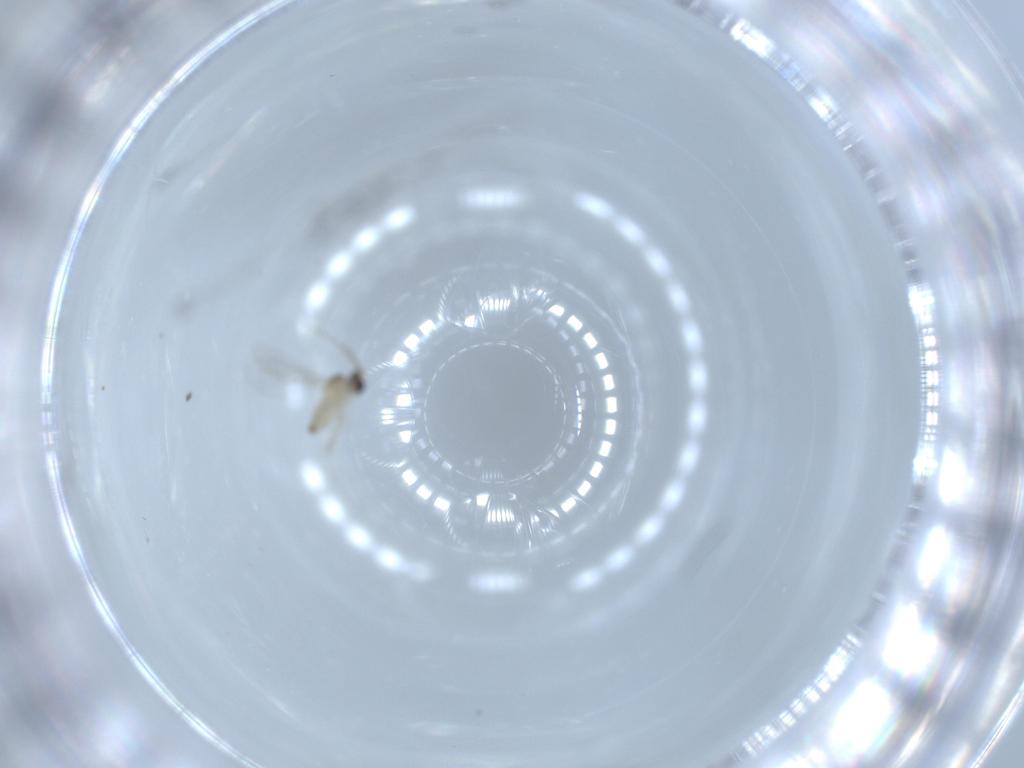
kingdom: Animalia
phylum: Arthropoda
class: Insecta
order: Diptera
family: Cecidomyiidae
